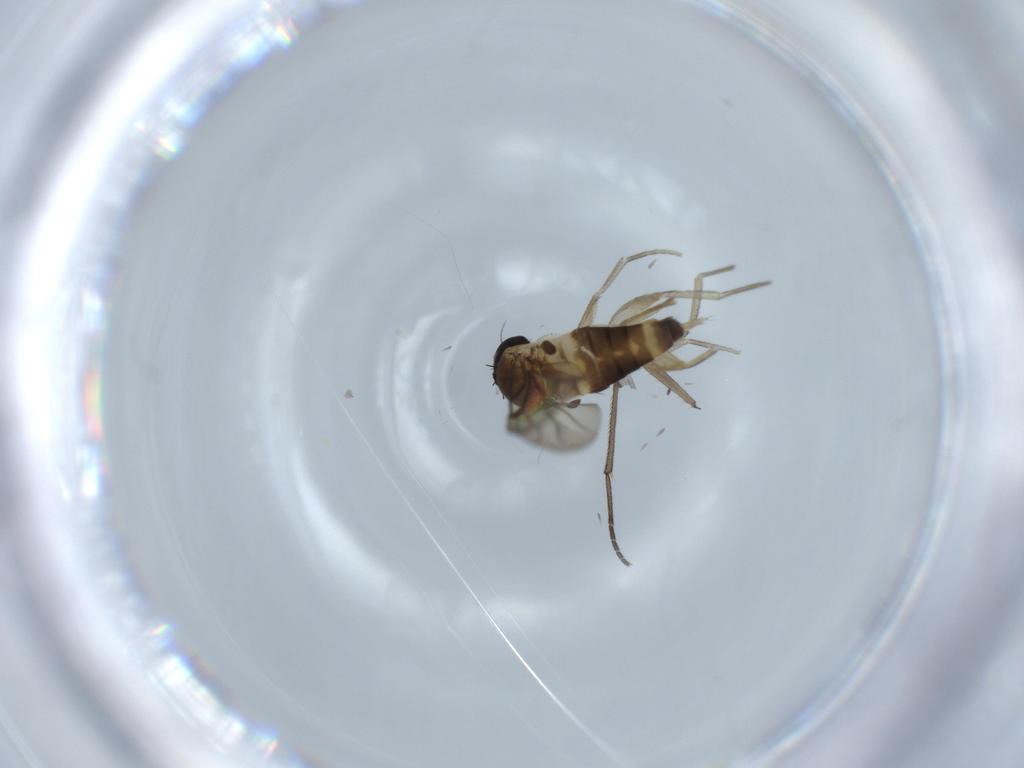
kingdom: Animalia
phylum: Arthropoda
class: Insecta
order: Diptera
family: Phoridae
